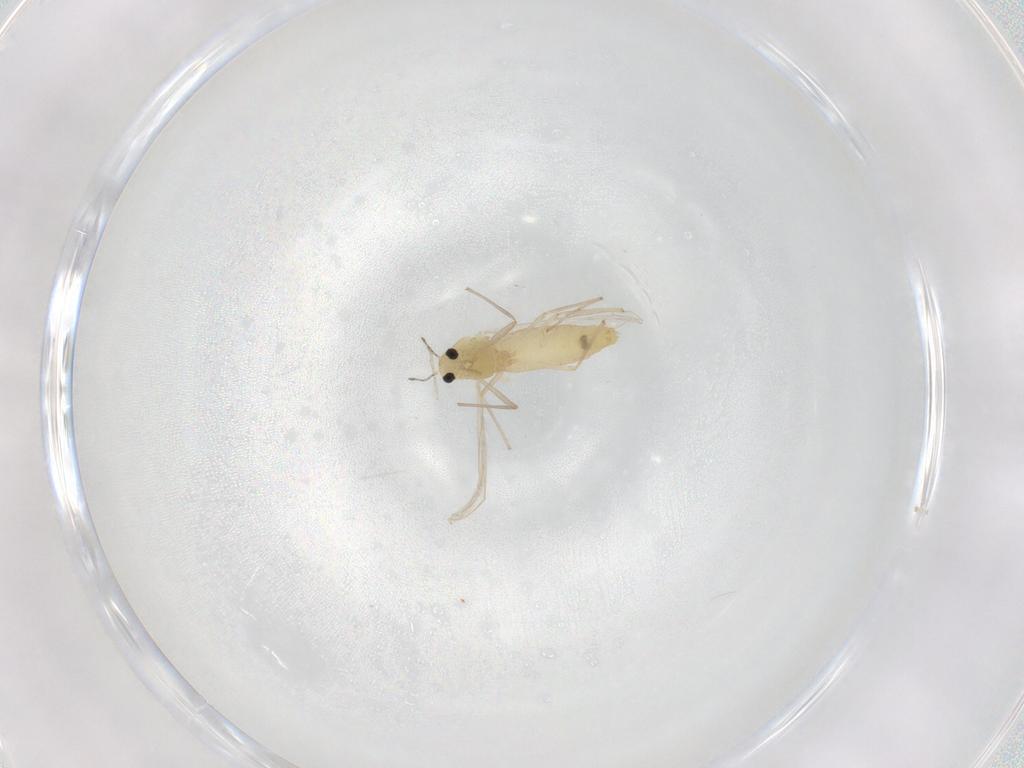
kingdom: Animalia
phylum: Arthropoda
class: Insecta
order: Diptera
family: Chironomidae
